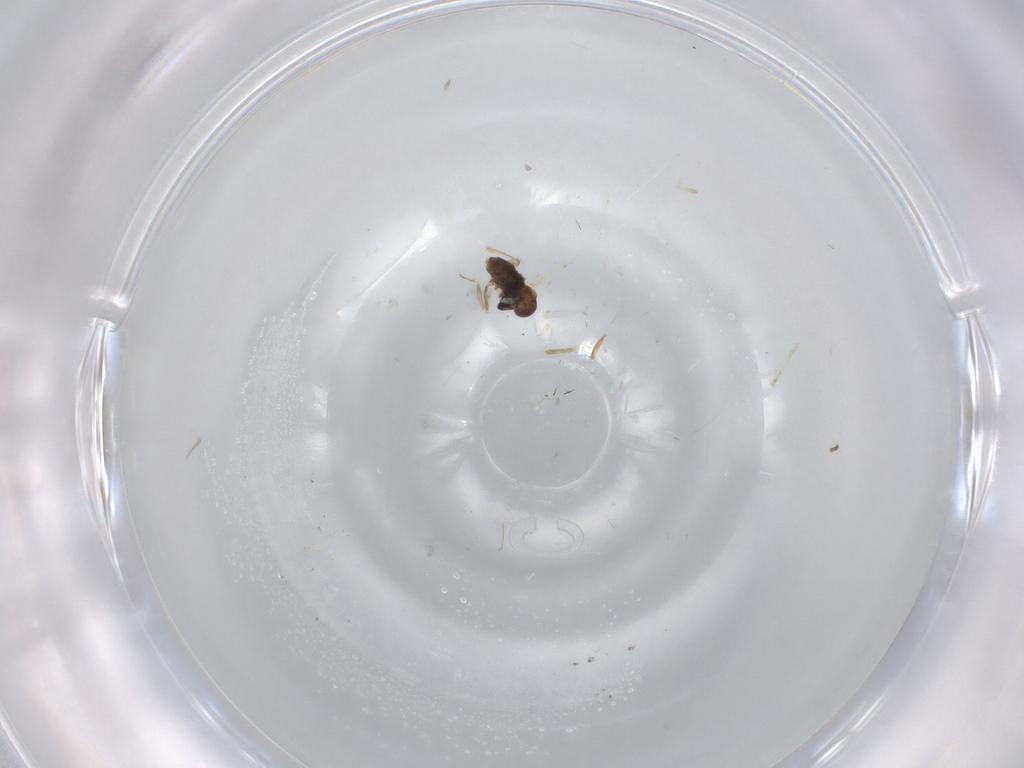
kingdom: Animalia
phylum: Arthropoda
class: Insecta
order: Diptera
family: Cecidomyiidae
